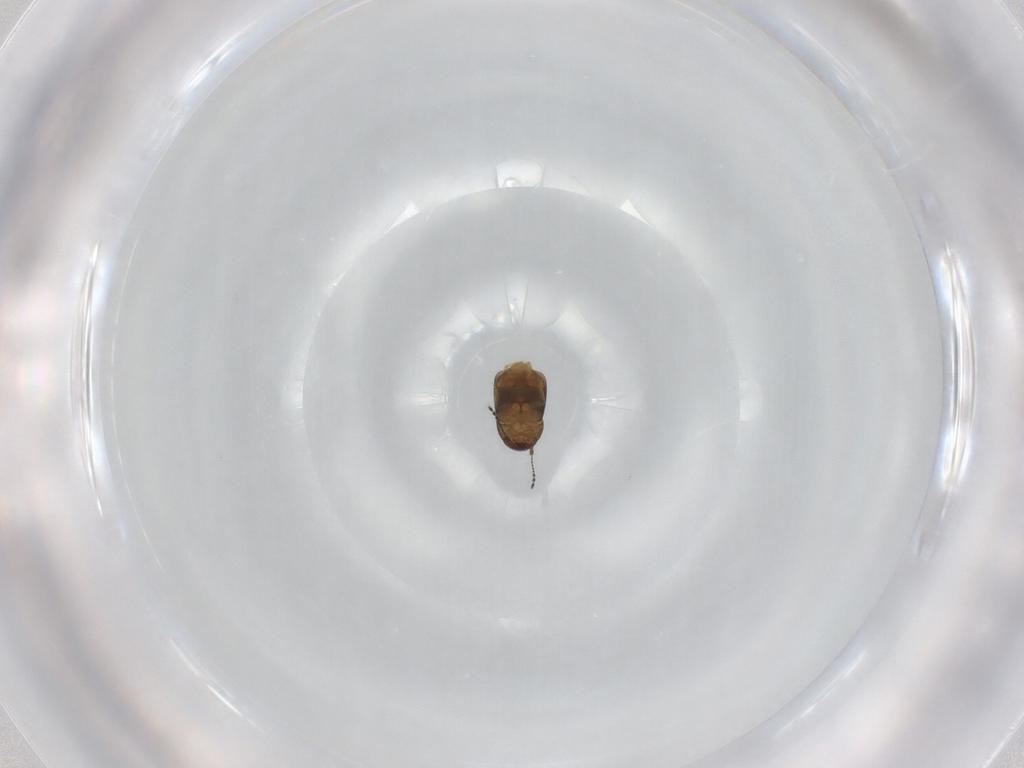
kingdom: Animalia
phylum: Arthropoda
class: Insecta
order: Coleoptera
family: Ptiliidae
